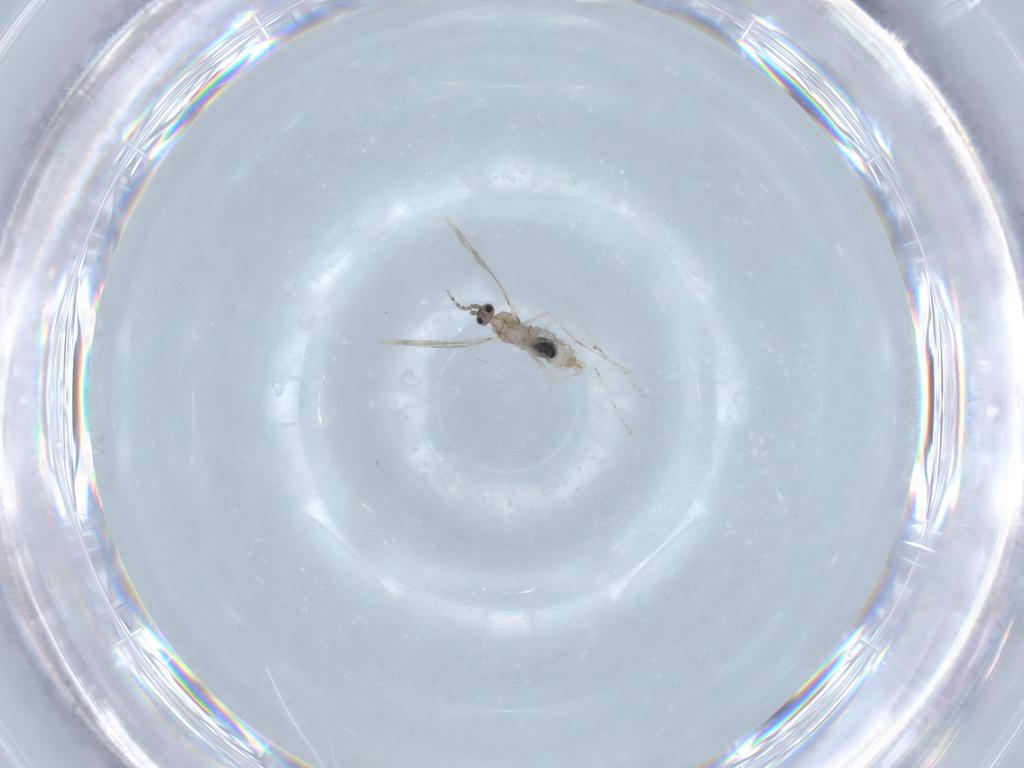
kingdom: Animalia
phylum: Arthropoda
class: Insecta
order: Diptera
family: Cecidomyiidae
